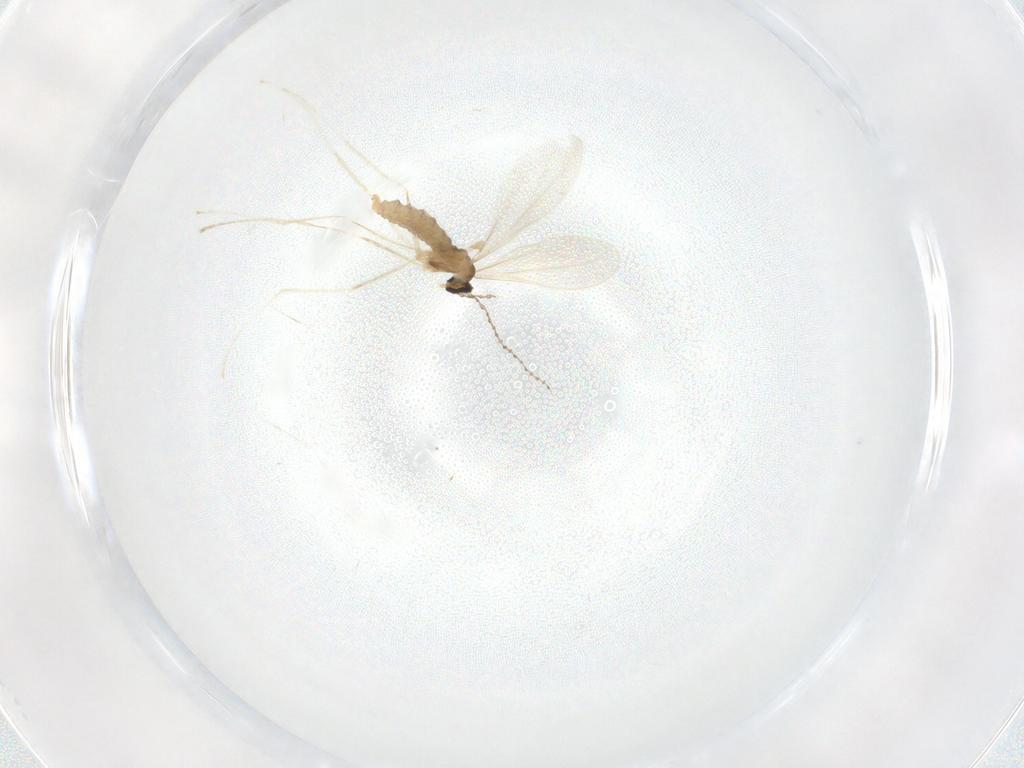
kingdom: Animalia
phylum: Arthropoda
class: Insecta
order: Diptera
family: Cecidomyiidae
